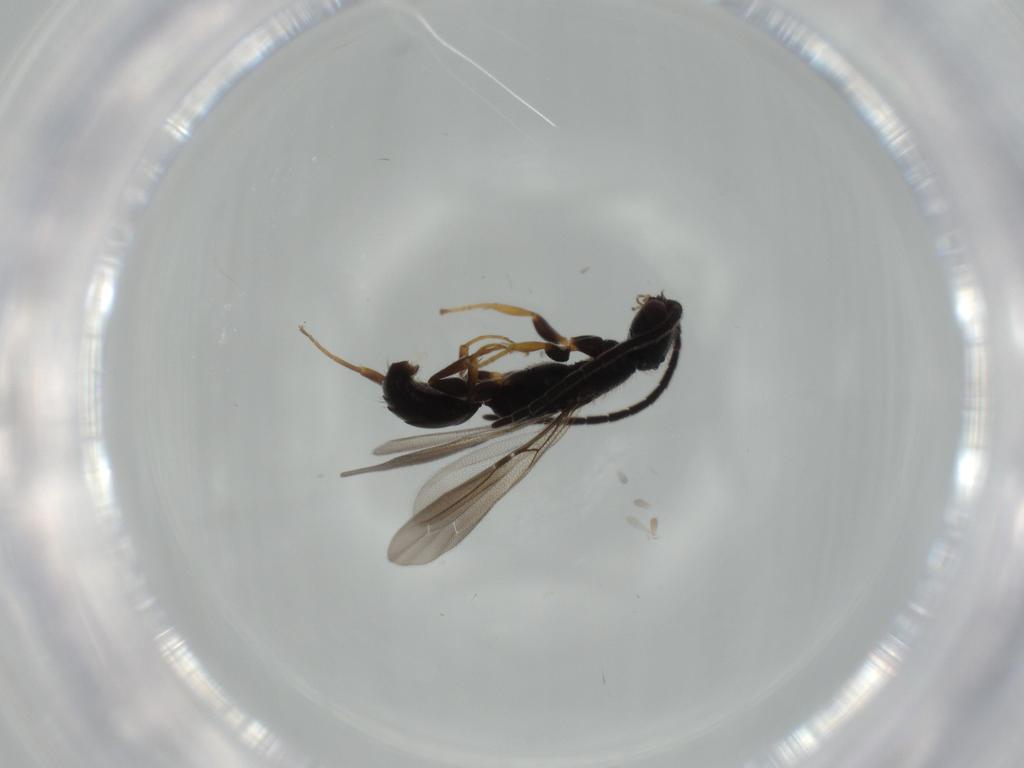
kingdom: Animalia
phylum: Arthropoda
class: Insecta
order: Hymenoptera
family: Bethylidae
